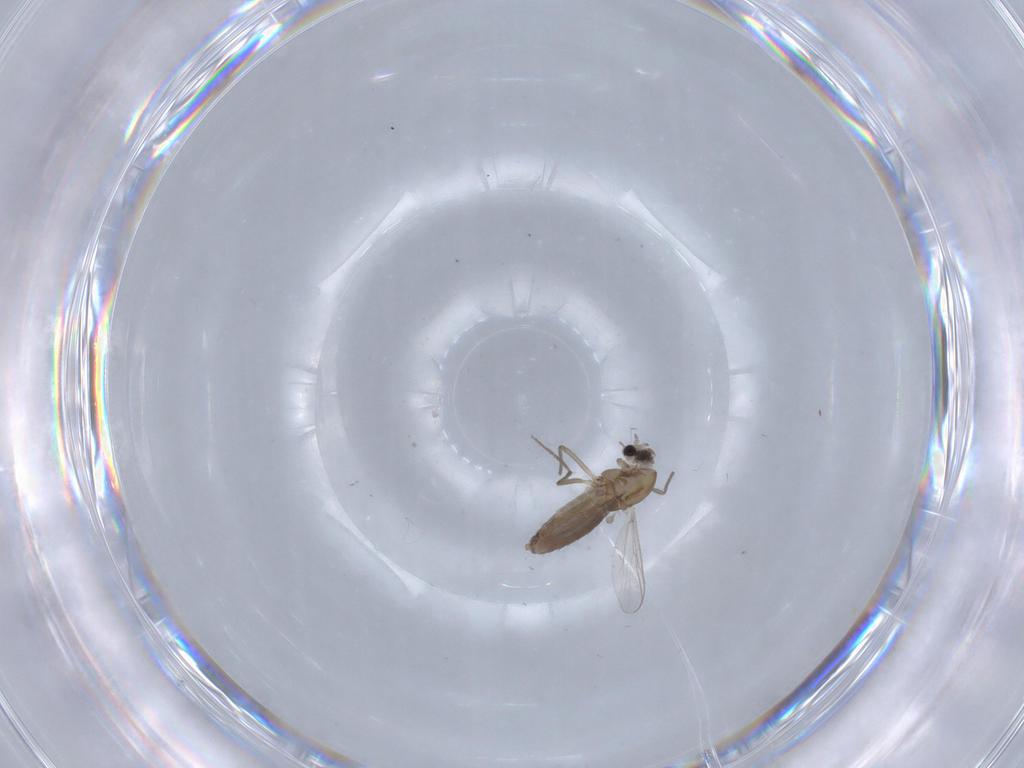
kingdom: Animalia
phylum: Arthropoda
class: Insecta
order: Diptera
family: Chironomidae
